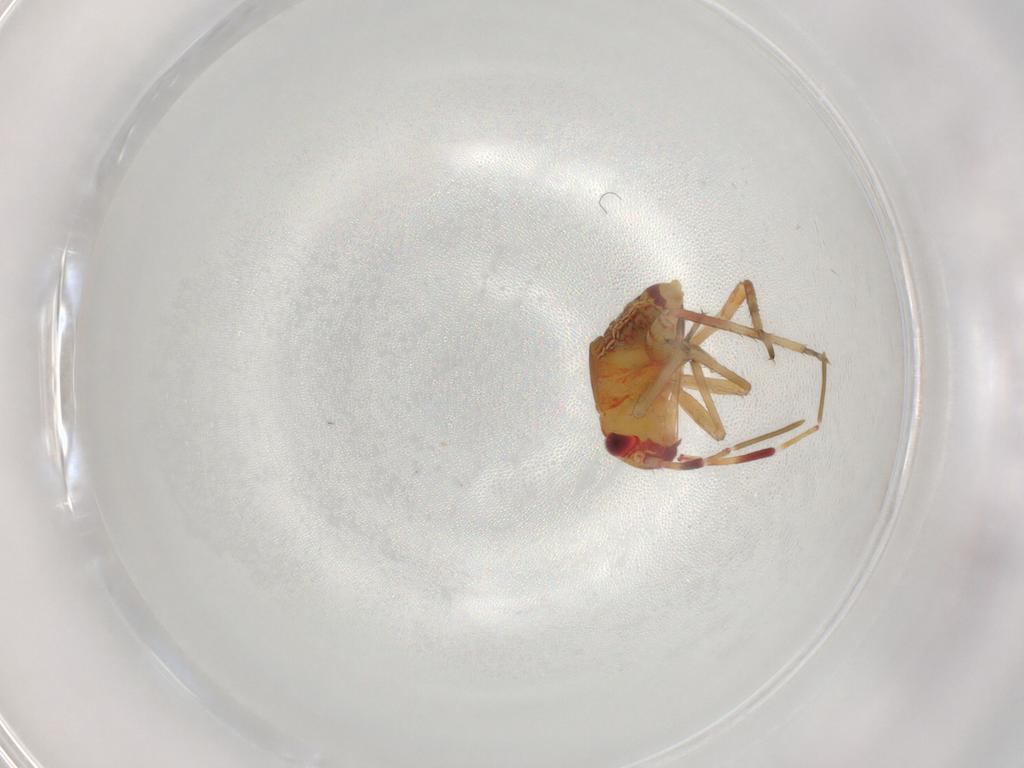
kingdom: Animalia
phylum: Arthropoda
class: Insecta
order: Hemiptera
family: Miridae
